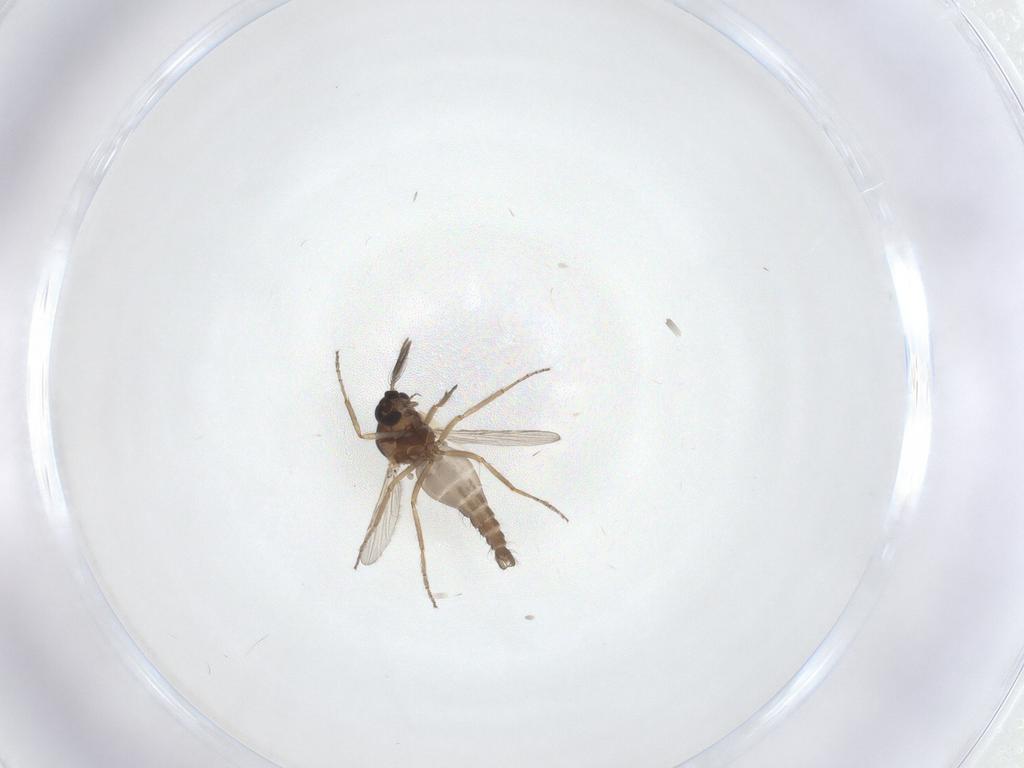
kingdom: Animalia
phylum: Arthropoda
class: Insecta
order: Diptera
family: Ceratopogonidae
